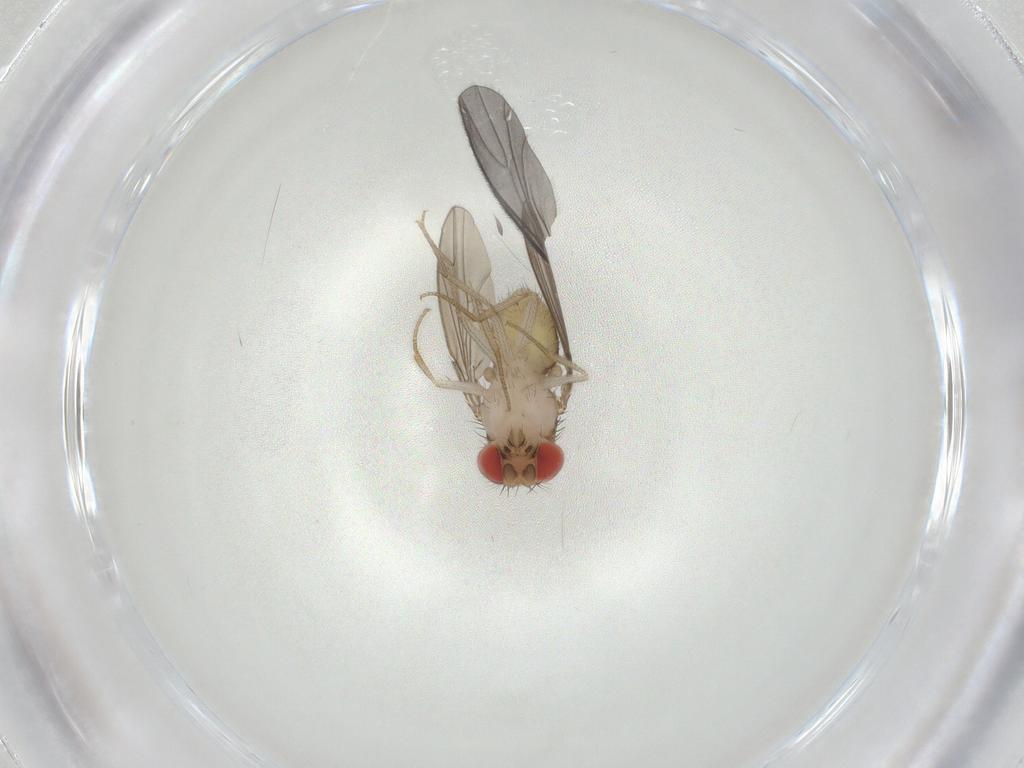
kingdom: Animalia
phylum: Arthropoda
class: Insecta
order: Diptera
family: Drosophilidae
